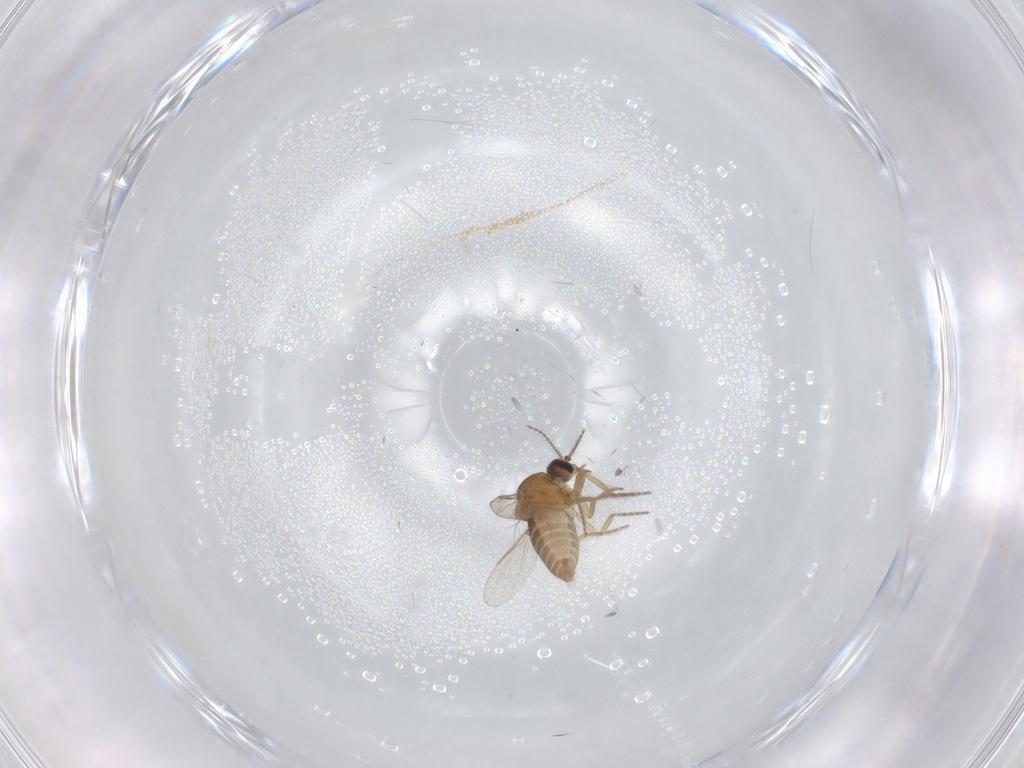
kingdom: Animalia
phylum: Arthropoda
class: Insecta
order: Diptera
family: Ceratopogonidae
